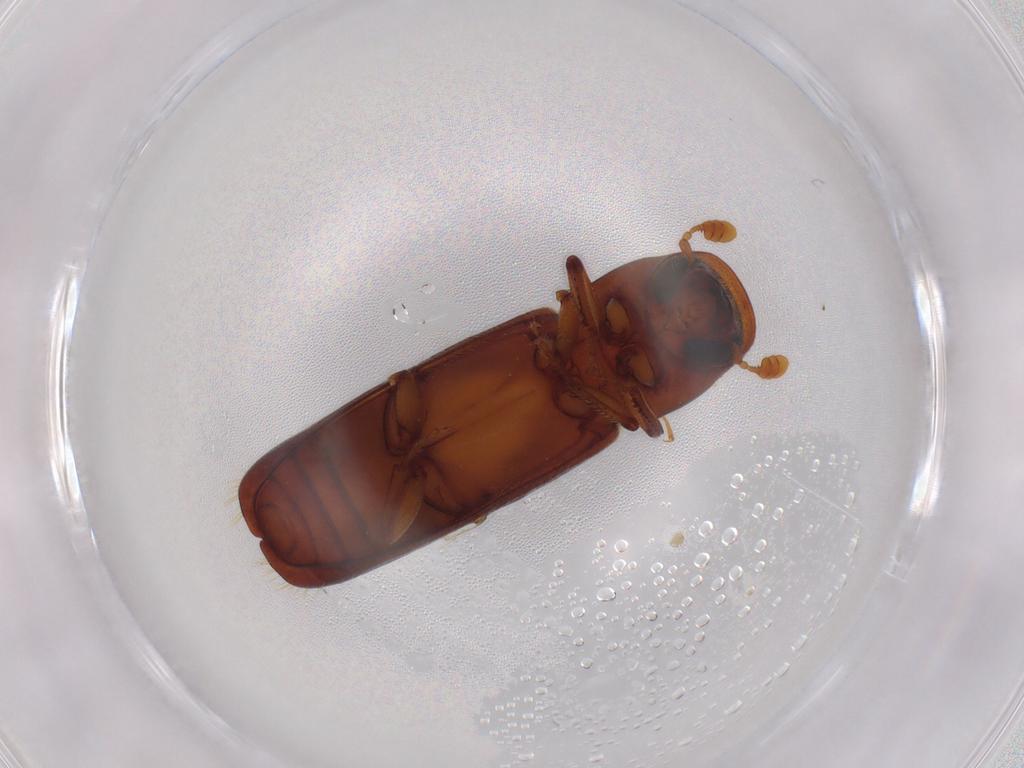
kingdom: Animalia
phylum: Arthropoda
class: Insecta
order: Coleoptera
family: Curculionidae
